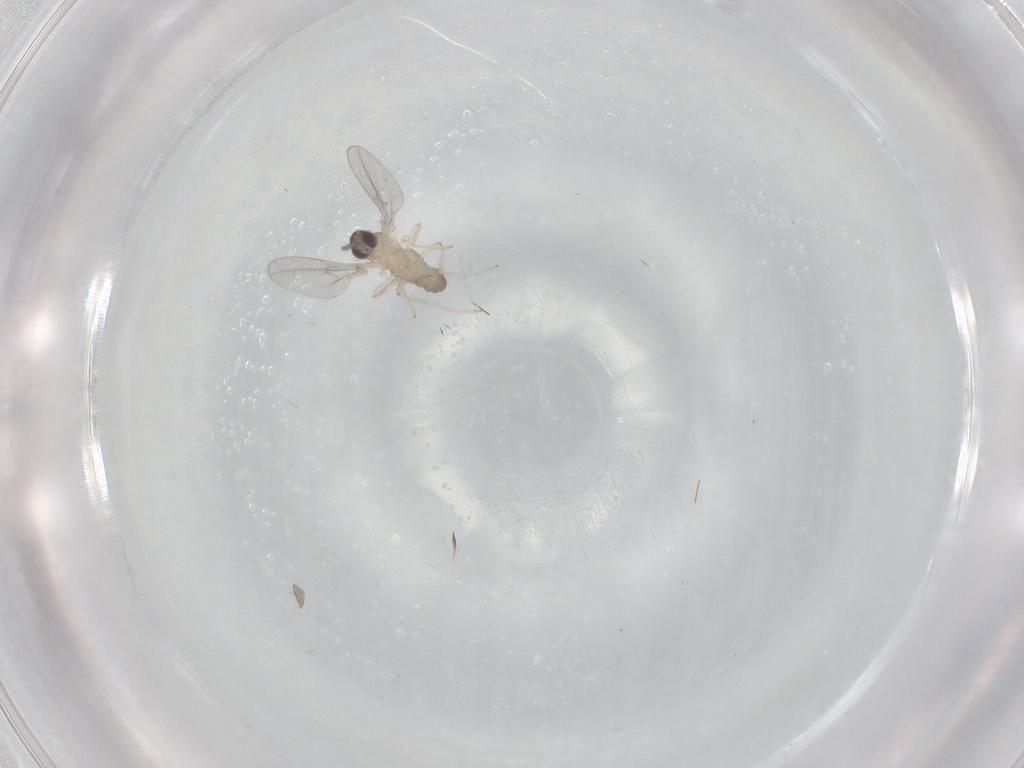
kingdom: Animalia
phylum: Arthropoda
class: Insecta
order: Diptera
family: Cecidomyiidae
